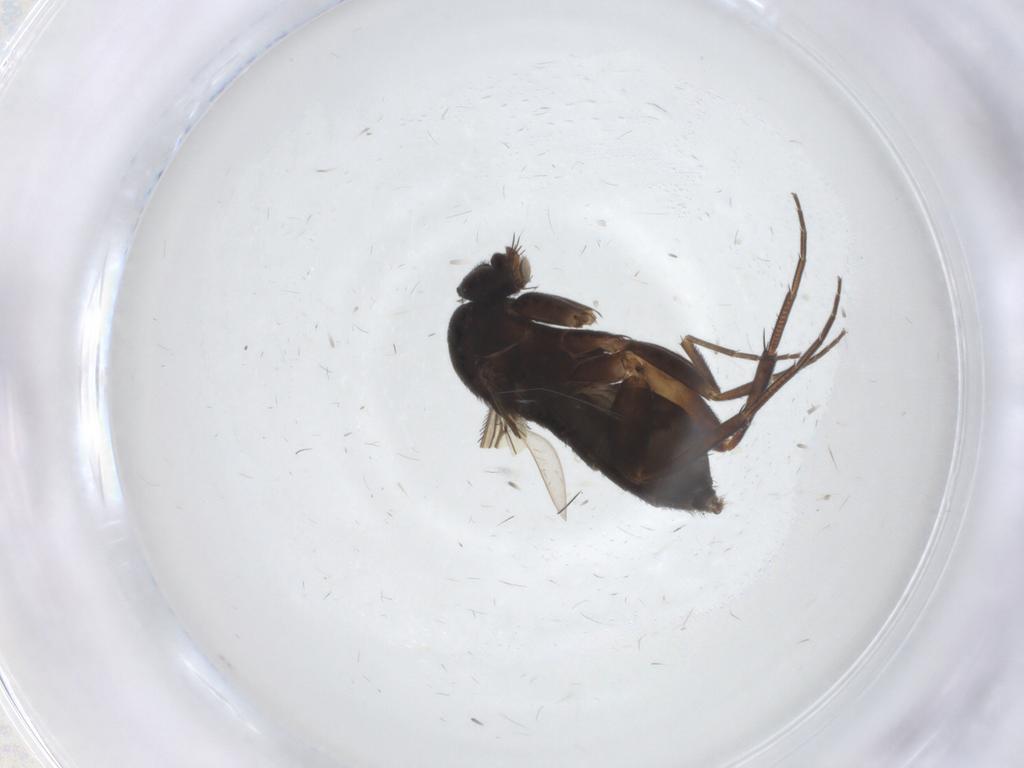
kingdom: Animalia
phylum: Arthropoda
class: Insecta
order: Diptera
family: Phoridae
